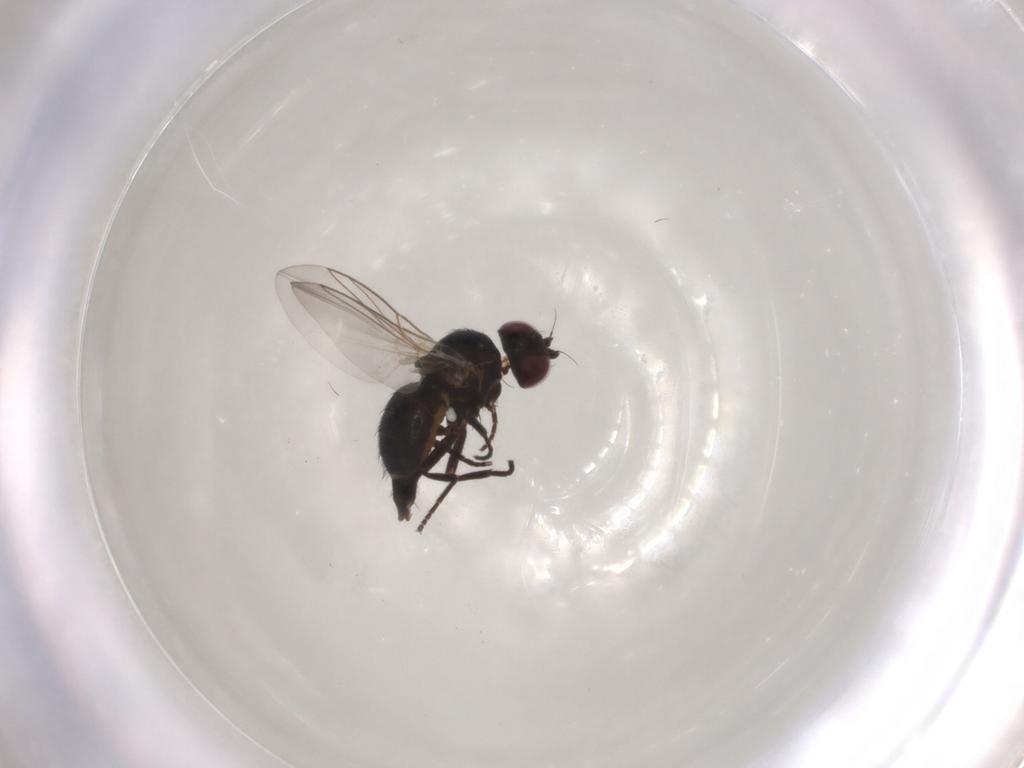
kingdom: Animalia
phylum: Arthropoda
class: Insecta
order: Diptera
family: Agromyzidae
